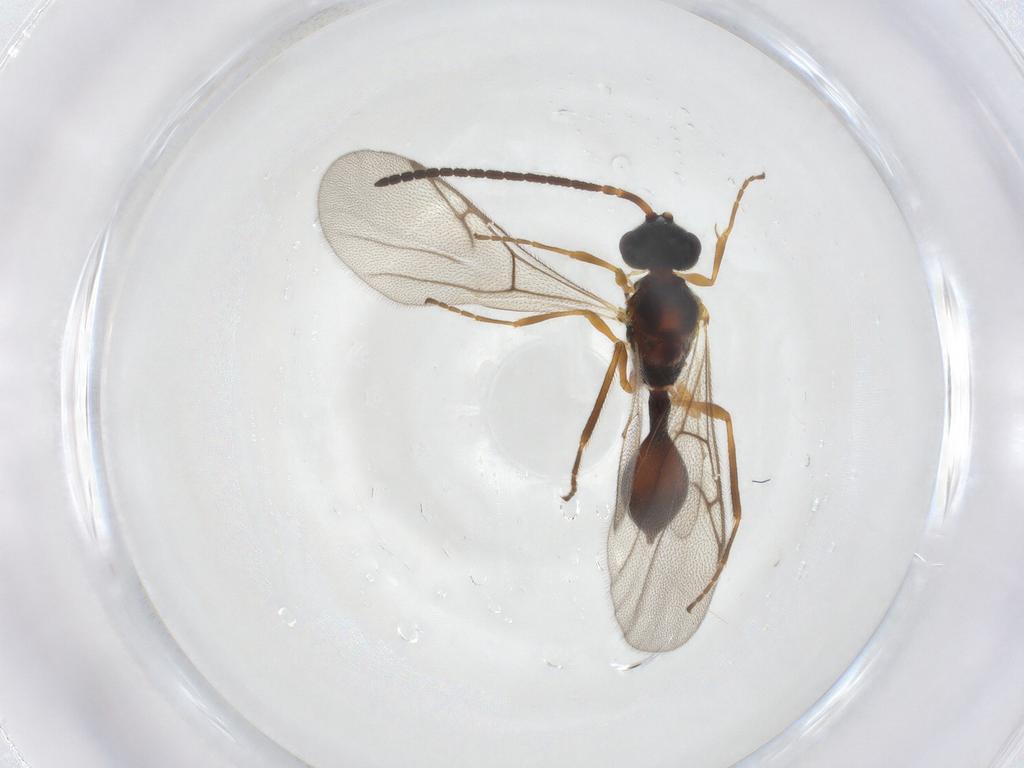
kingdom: Animalia
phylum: Arthropoda
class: Insecta
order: Hymenoptera
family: Diapriidae
